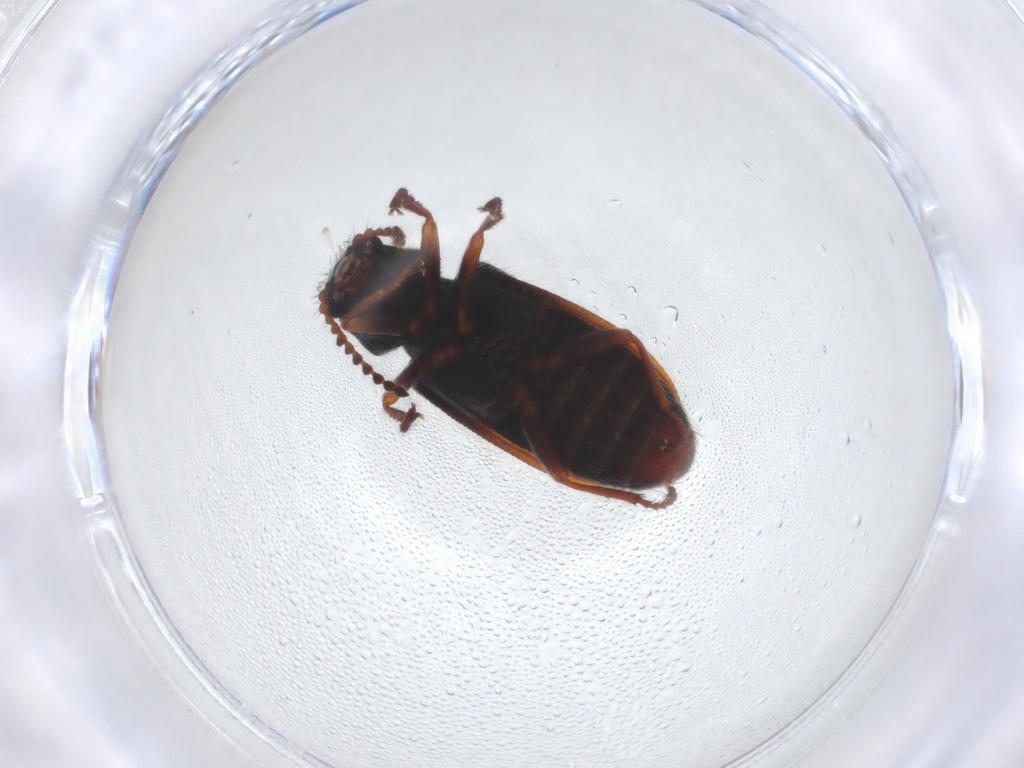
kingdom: Animalia
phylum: Arthropoda
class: Insecta
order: Coleoptera
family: Melyridae
